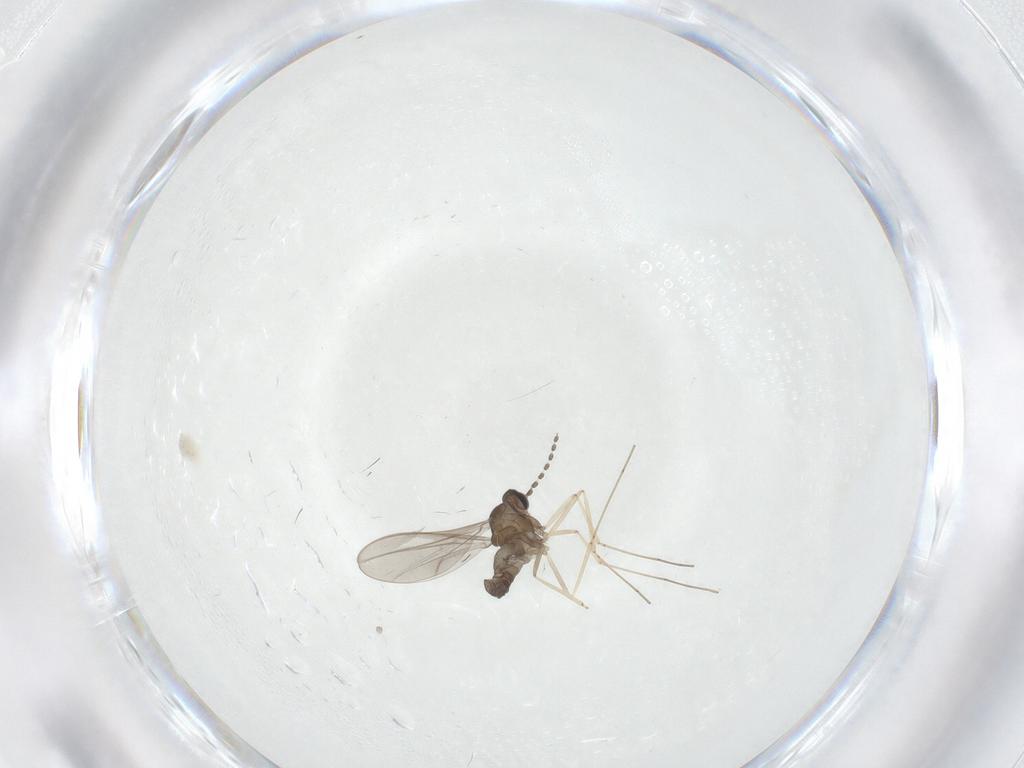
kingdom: Animalia
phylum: Arthropoda
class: Insecta
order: Diptera
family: Cecidomyiidae
